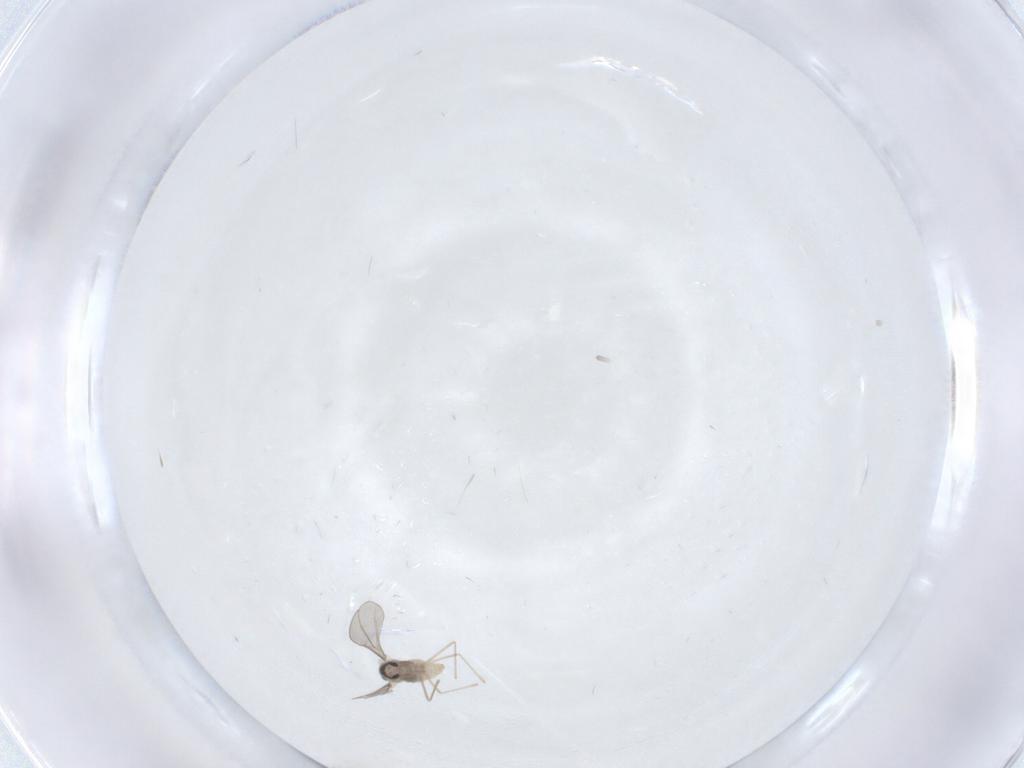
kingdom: Animalia
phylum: Arthropoda
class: Insecta
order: Diptera
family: Cecidomyiidae
